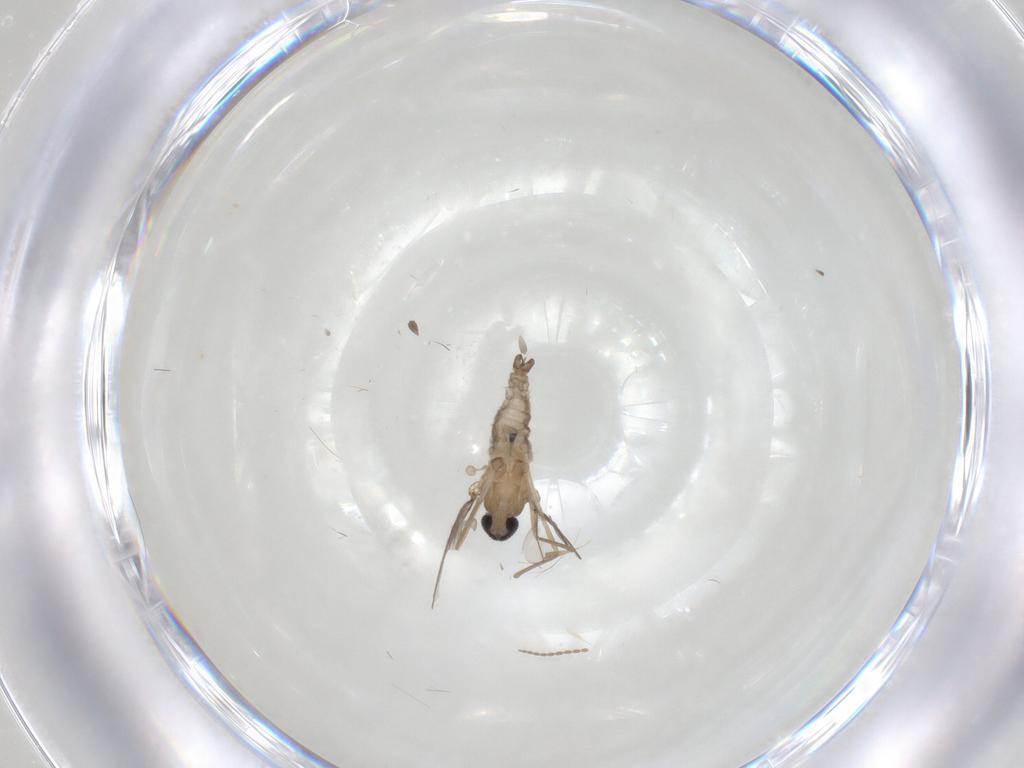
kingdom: Animalia
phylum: Arthropoda
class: Insecta
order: Diptera
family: Cecidomyiidae
